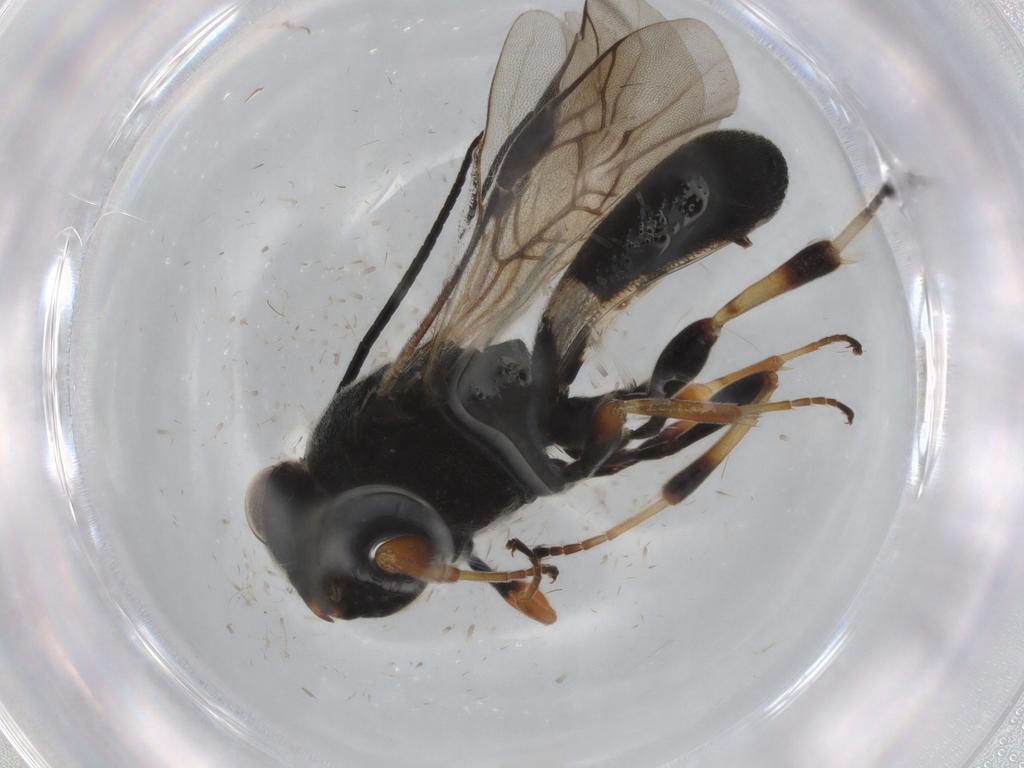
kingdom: Animalia
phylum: Arthropoda
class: Insecta
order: Hymenoptera
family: Braconidae
